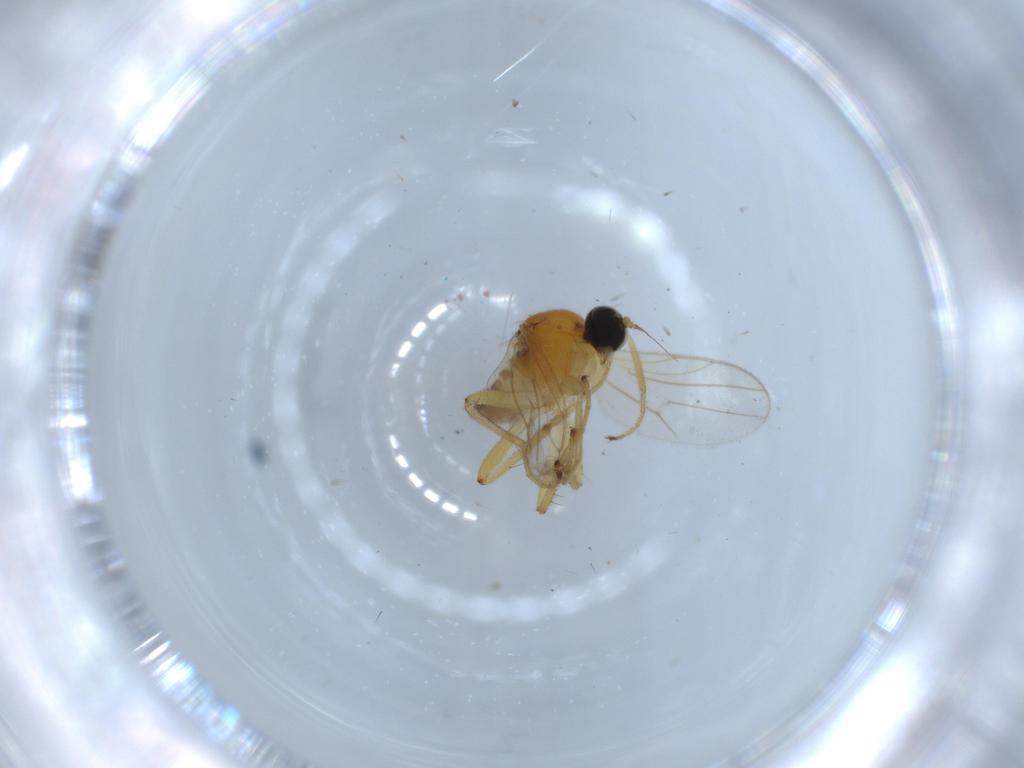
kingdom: Animalia
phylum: Arthropoda
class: Insecta
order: Diptera
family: Hybotidae
